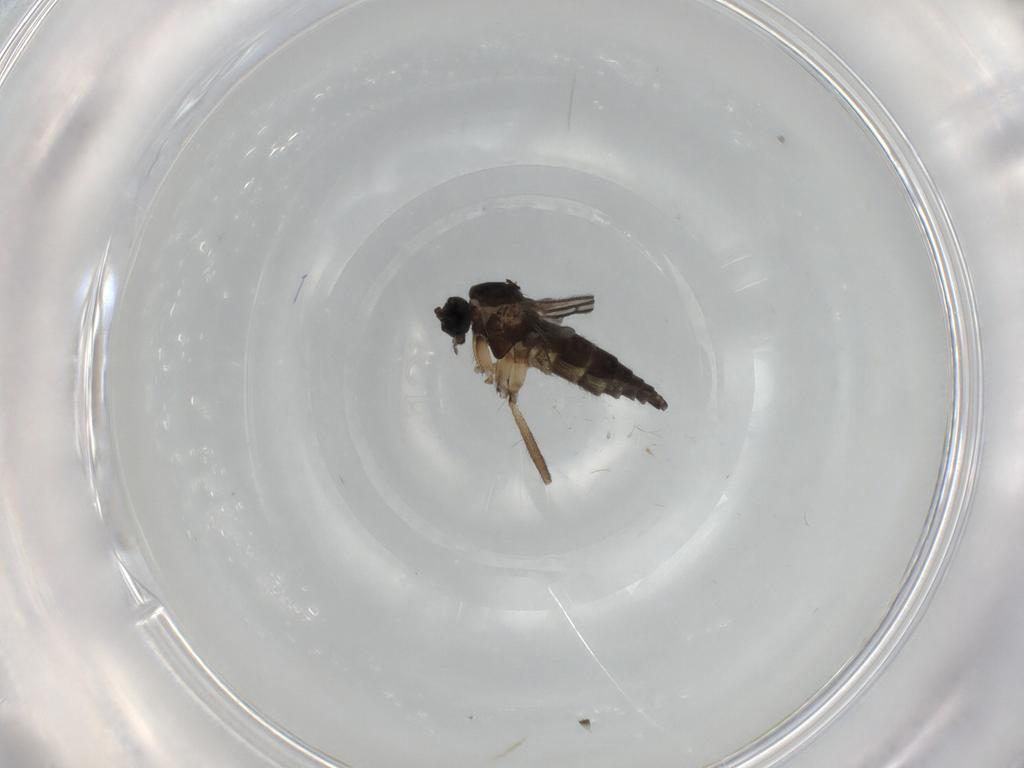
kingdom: Animalia
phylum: Arthropoda
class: Insecta
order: Diptera
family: Sciaridae
